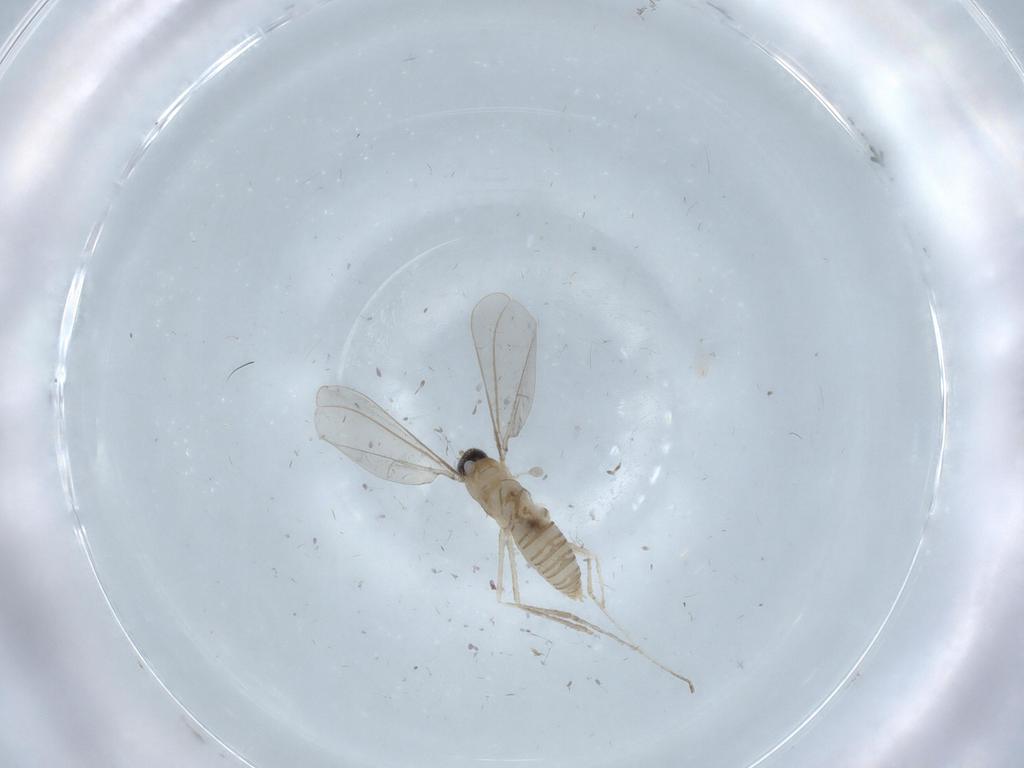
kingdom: Animalia
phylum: Arthropoda
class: Insecta
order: Diptera
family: Cecidomyiidae
